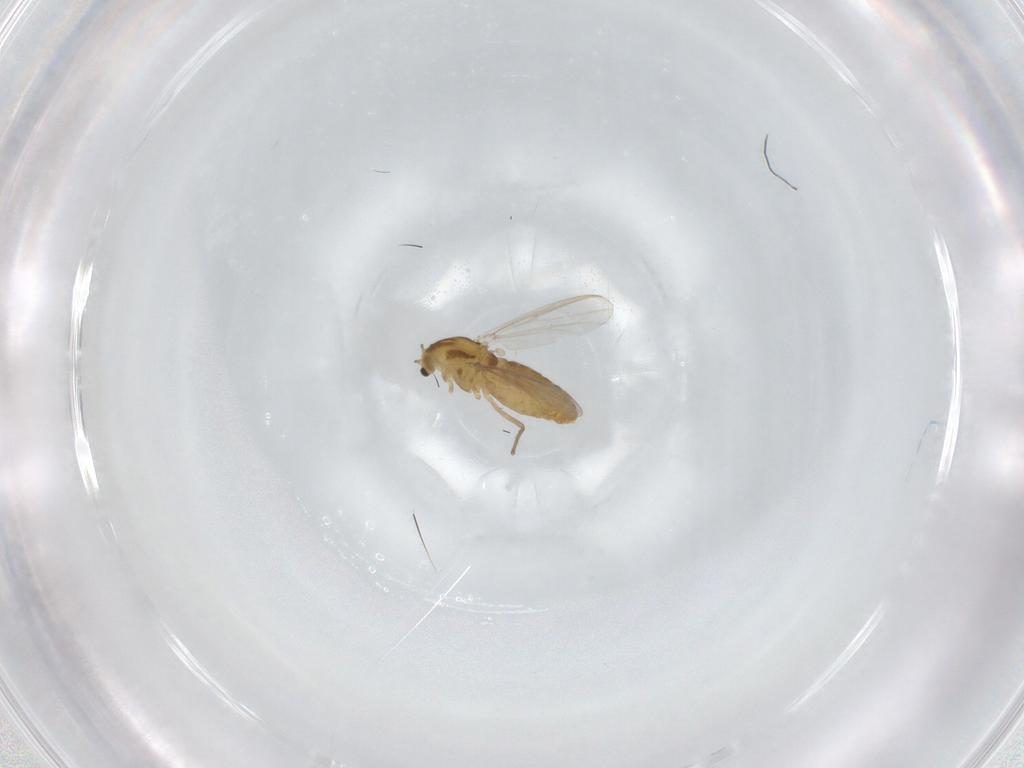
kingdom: Animalia
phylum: Arthropoda
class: Insecta
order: Diptera
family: Chironomidae
